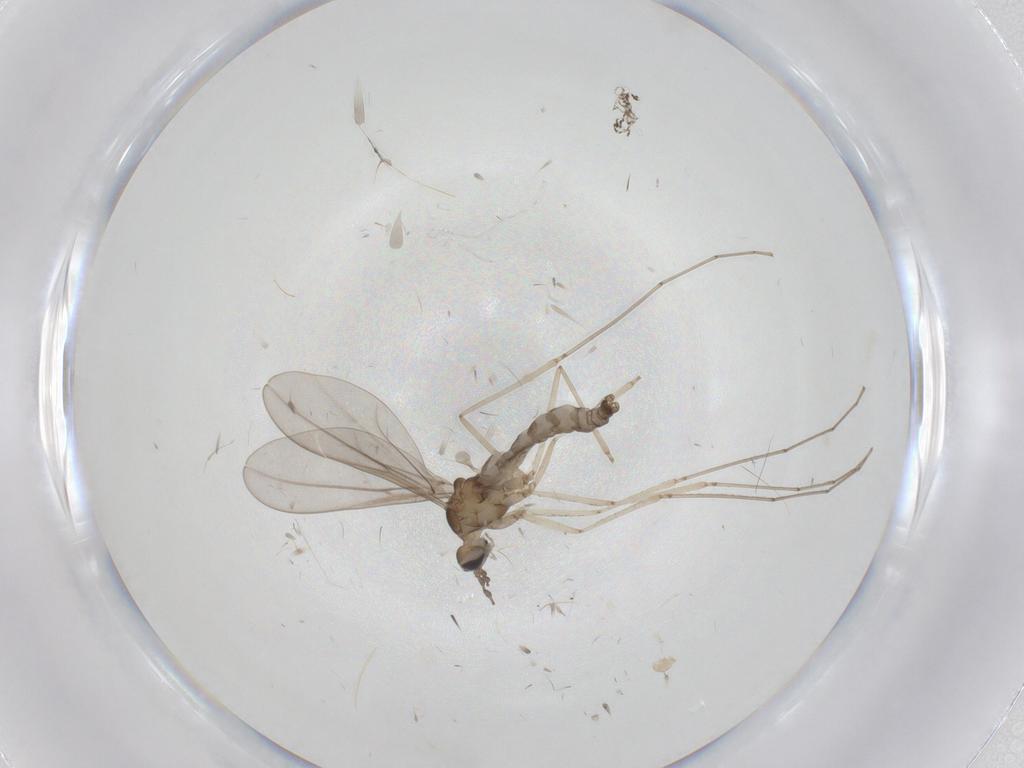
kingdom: Animalia
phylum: Arthropoda
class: Insecta
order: Diptera
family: Cecidomyiidae
